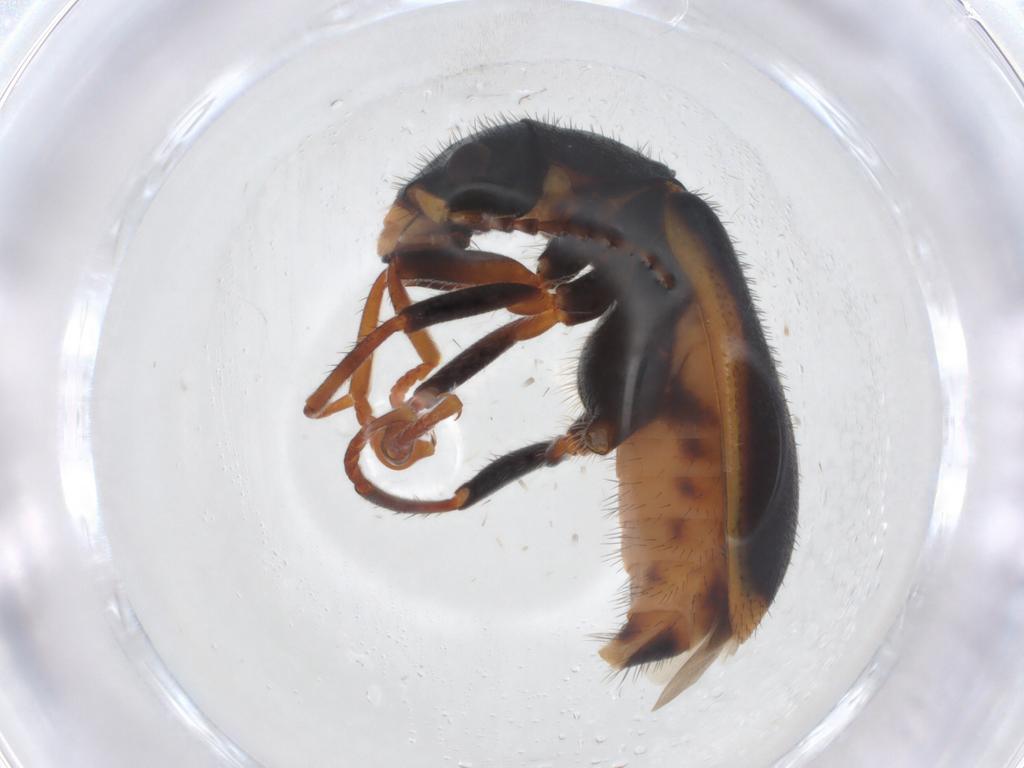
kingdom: Animalia
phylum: Arthropoda
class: Insecta
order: Coleoptera
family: Melyridae
